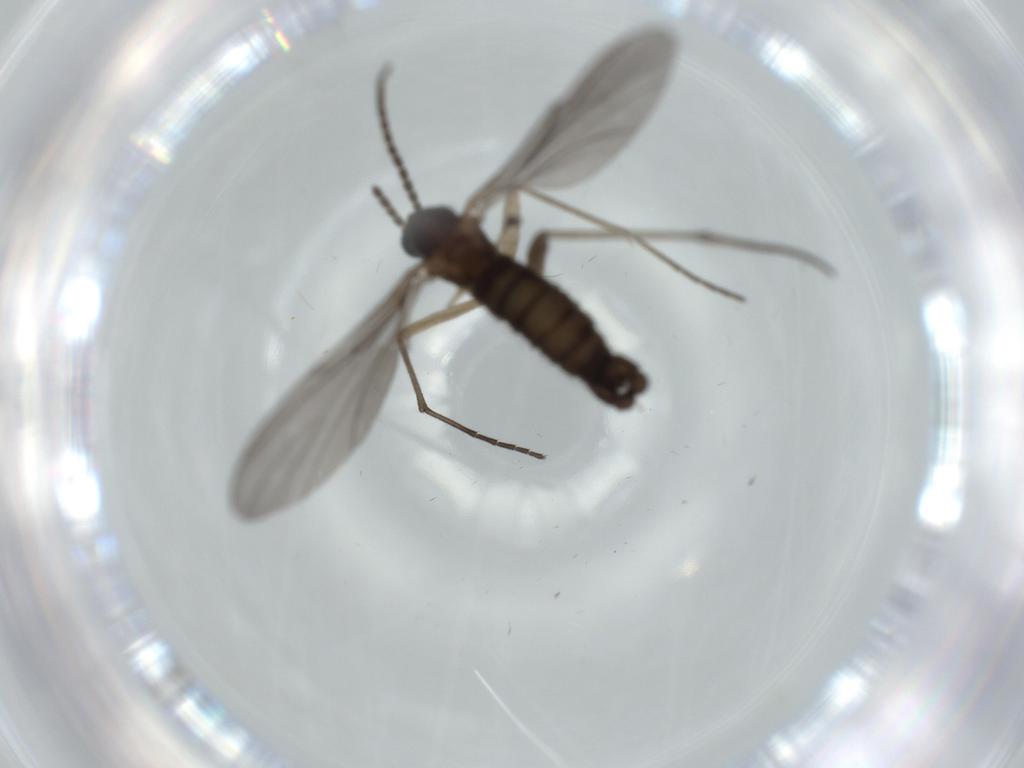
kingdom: Animalia
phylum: Arthropoda
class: Insecta
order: Diptera
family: Sciaridae
